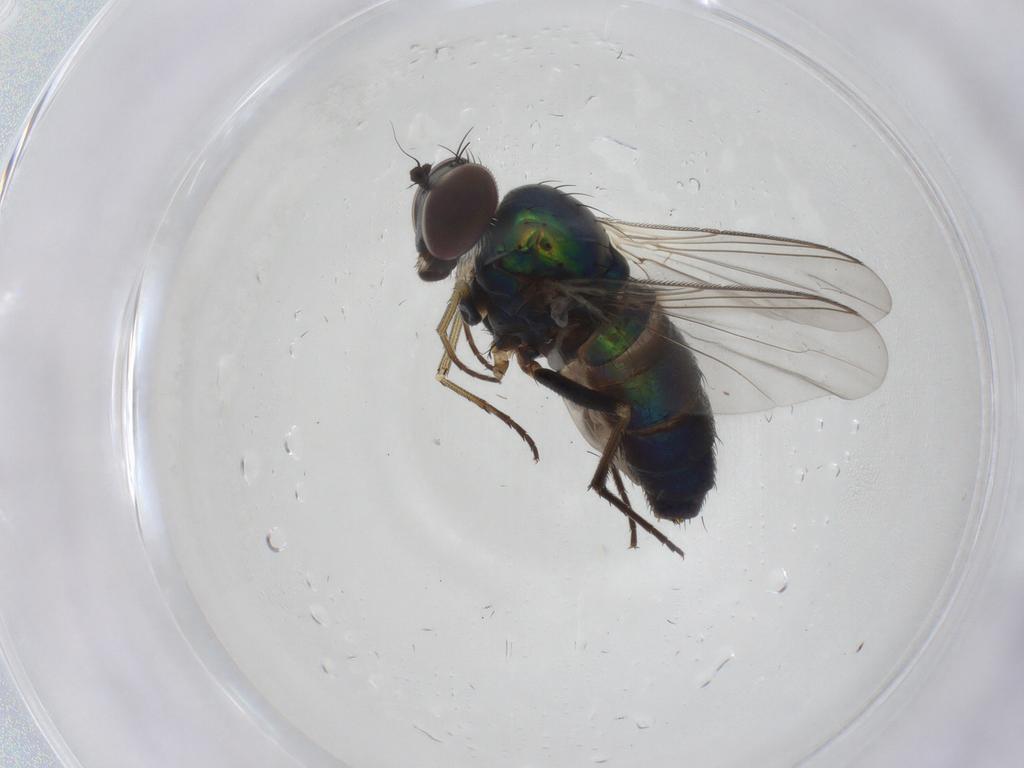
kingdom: Animalia
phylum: Arthropoda
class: Insecta
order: Diptera
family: Dolichopodidae
